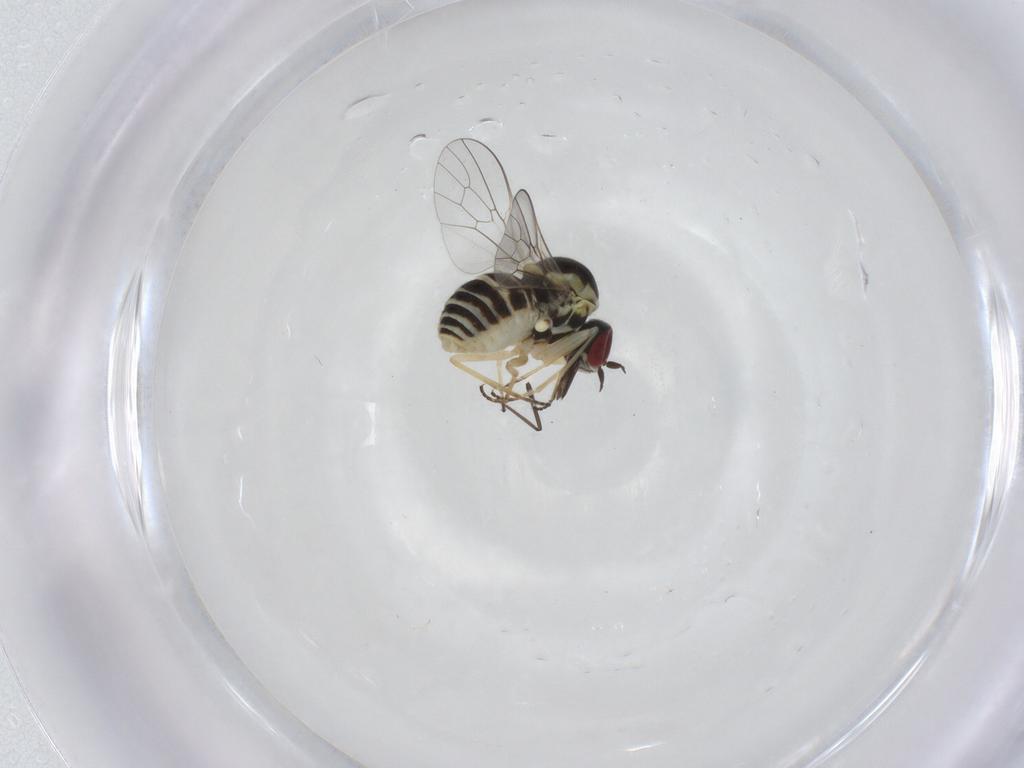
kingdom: Animalia
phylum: Arthropoda
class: Insecta
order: Diptera
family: Chironomidae
